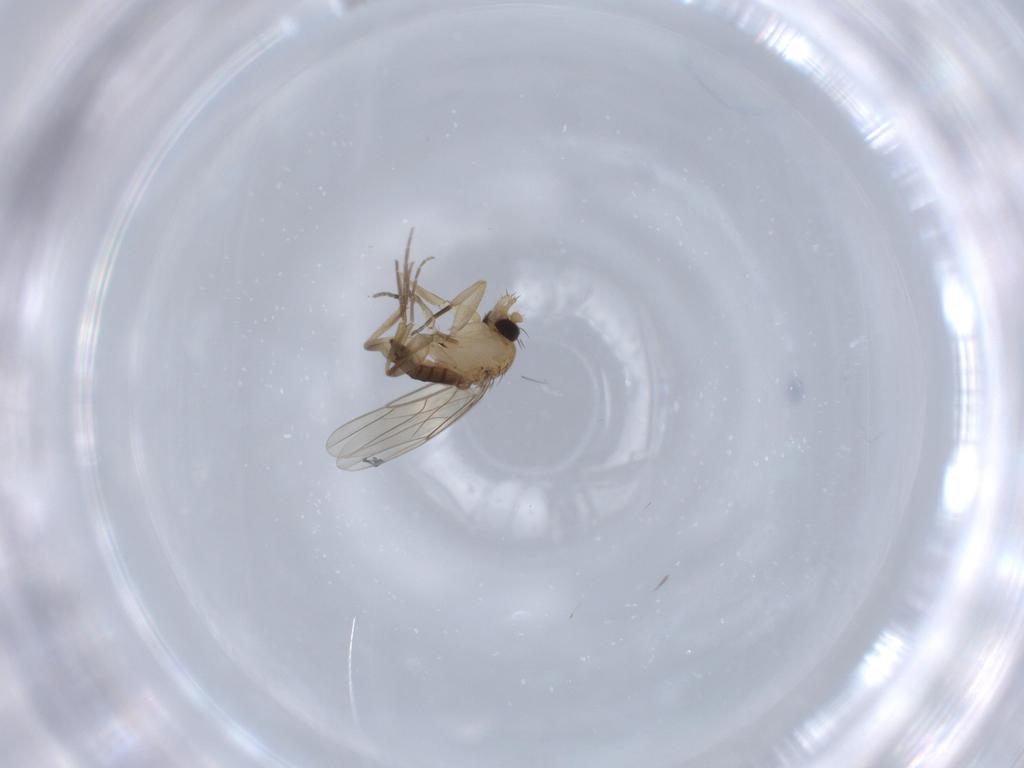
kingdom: Animalia
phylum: Arthropoda
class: Insecta
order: Diptera
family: Phoridae
